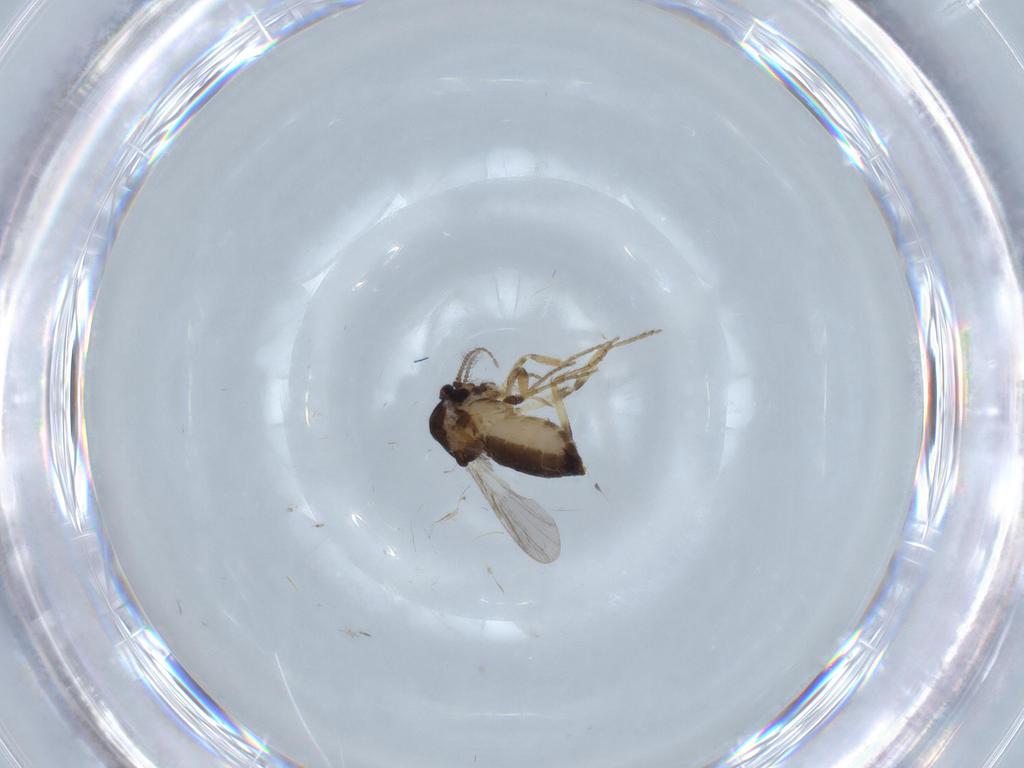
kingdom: Animalia
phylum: Arthropoda
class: Insecta
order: Diptera
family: Ceratopogonidae
